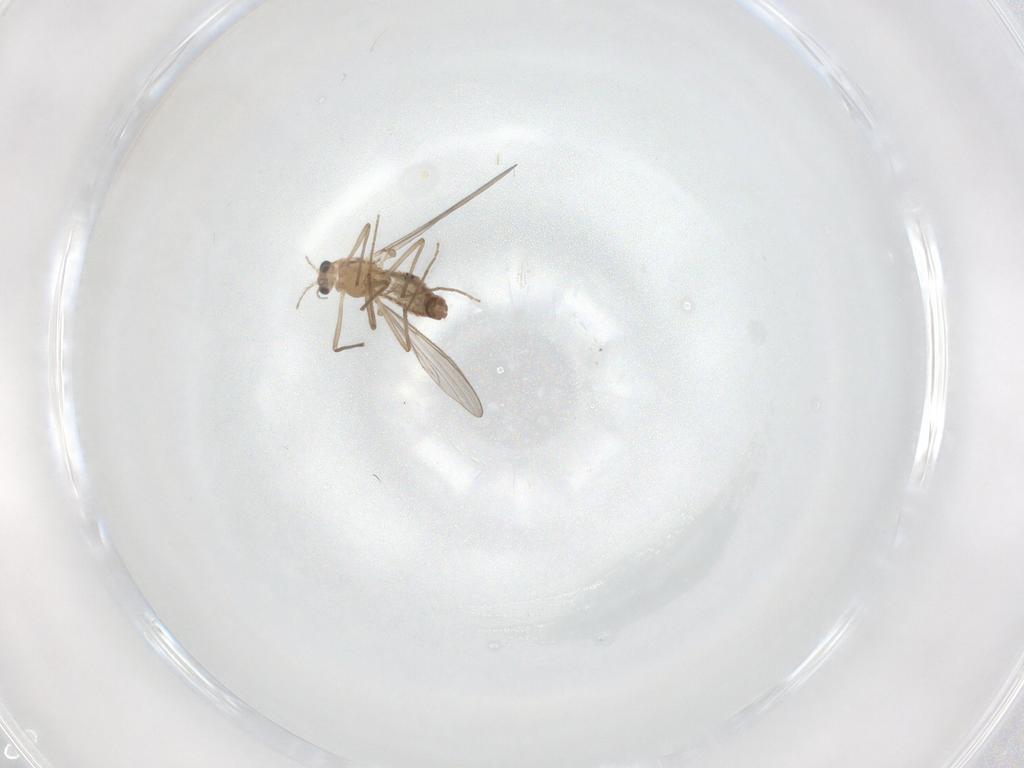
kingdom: Animalia
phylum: Arthropoda
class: Insecta
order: Diptera
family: Chironomidae
